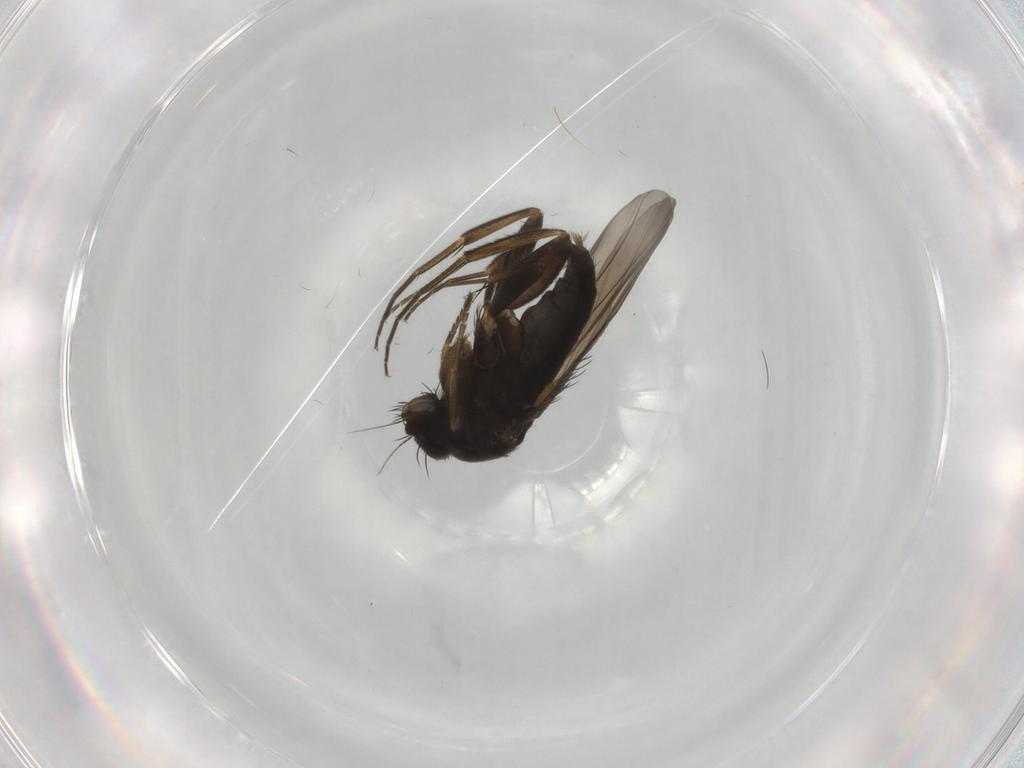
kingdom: Animalia
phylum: Arthropoda
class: Insecta
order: Diptera
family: Phoridae
